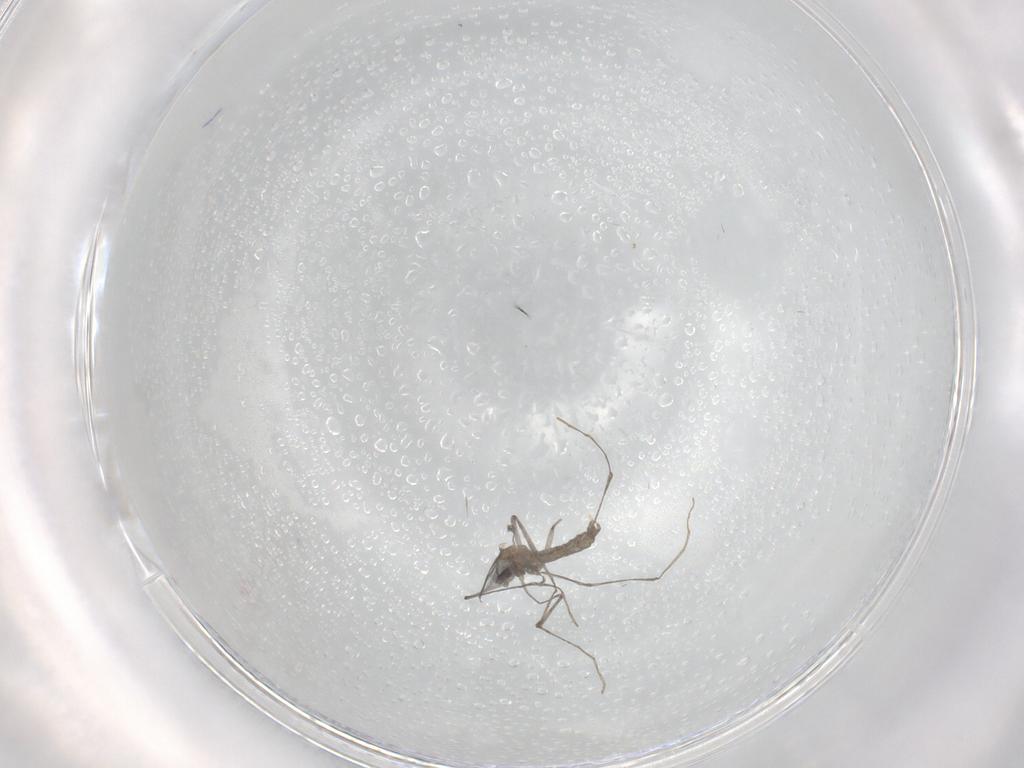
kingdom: Animalia
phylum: Arthropoda
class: Insecta
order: Diptera
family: Cecidomyiidae
